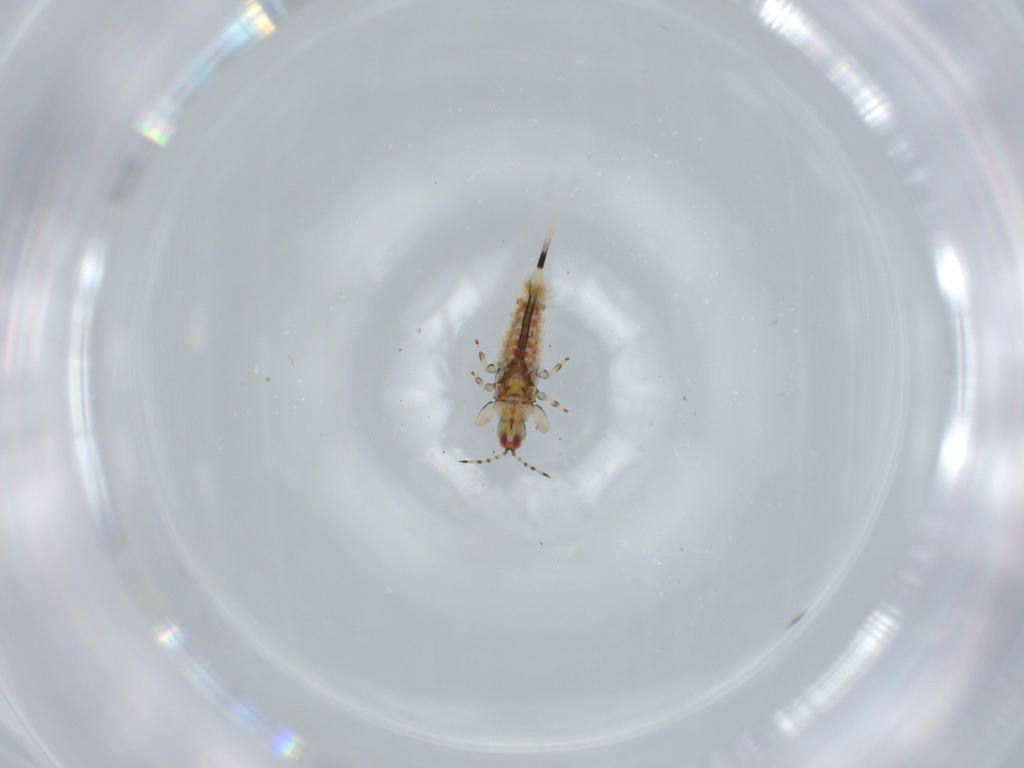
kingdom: Animalia
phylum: Arthropoda
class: Insecta
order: Thysanoptera
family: Phlaeothripidae
